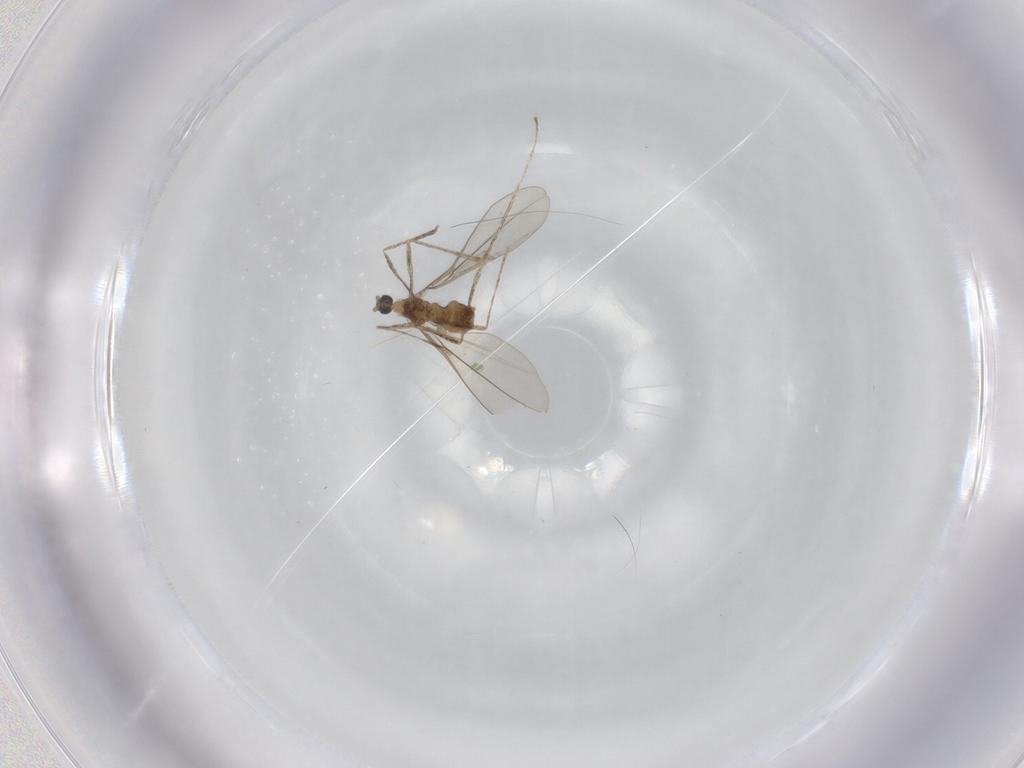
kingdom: Animalia
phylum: Arthropoda
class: Insecta
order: Diptera
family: Cecidomyiidae
